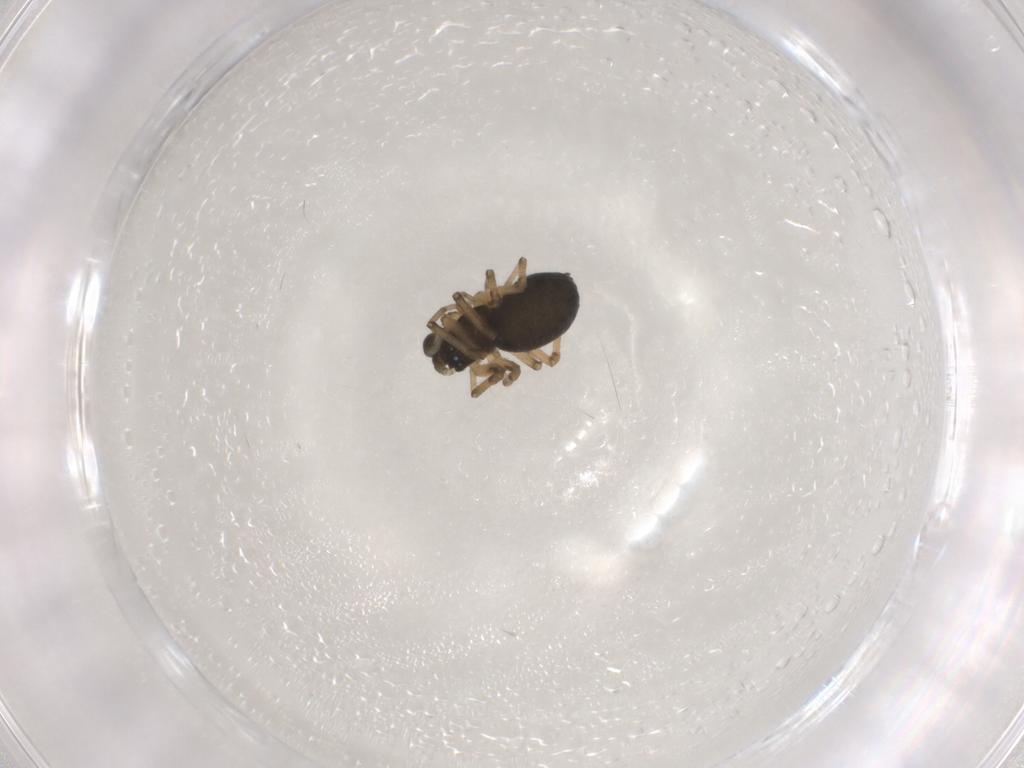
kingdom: Animalia
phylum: Arthropoda
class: Arachnida
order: Araneae
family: Linyphiidae
